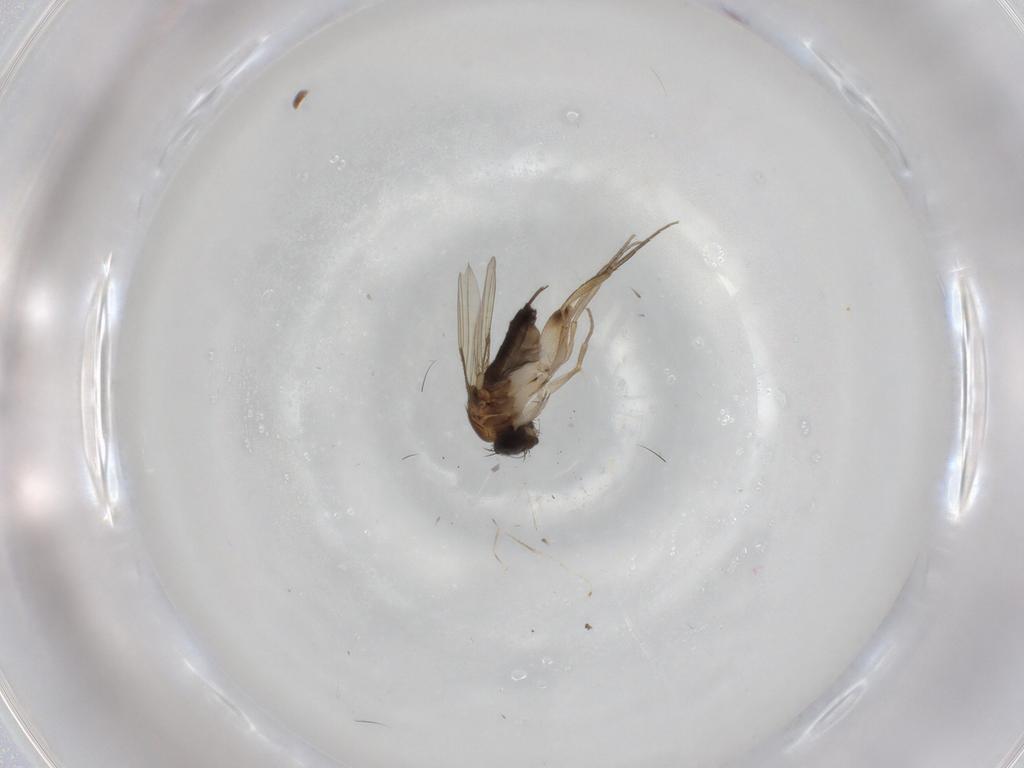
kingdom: Animalia
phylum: Arthropoda
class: Insecta
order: Diptera
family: Phoridae
